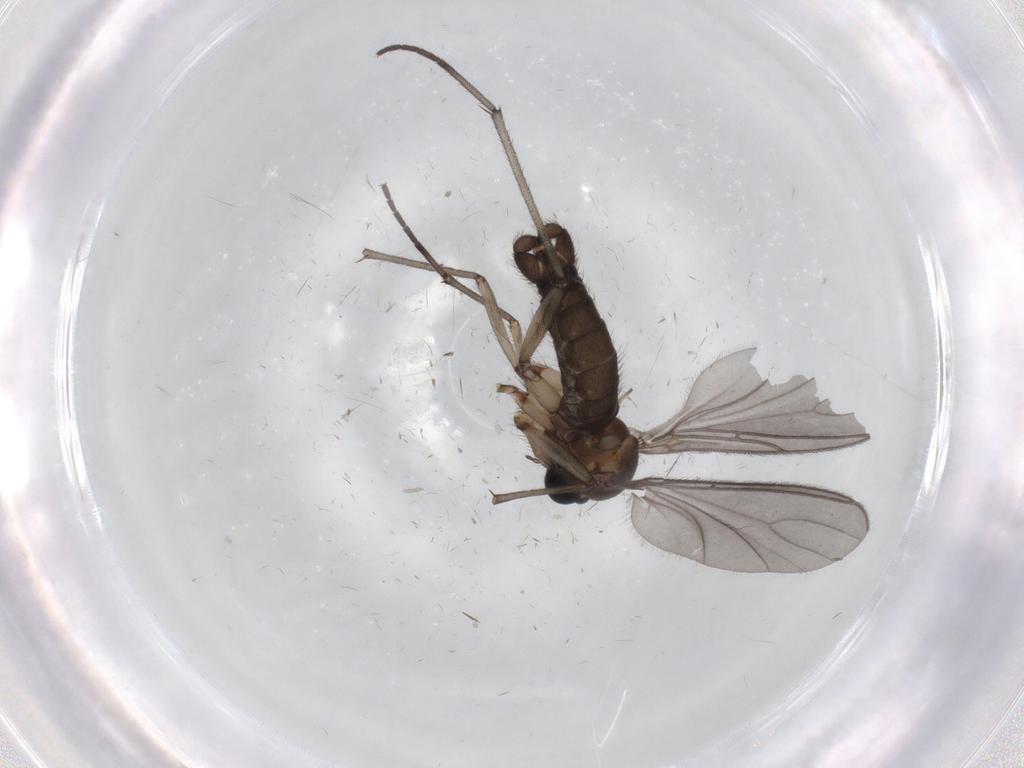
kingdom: Animalia
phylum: Arthropoda
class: Insecta
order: Diptera
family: Sciaridae
